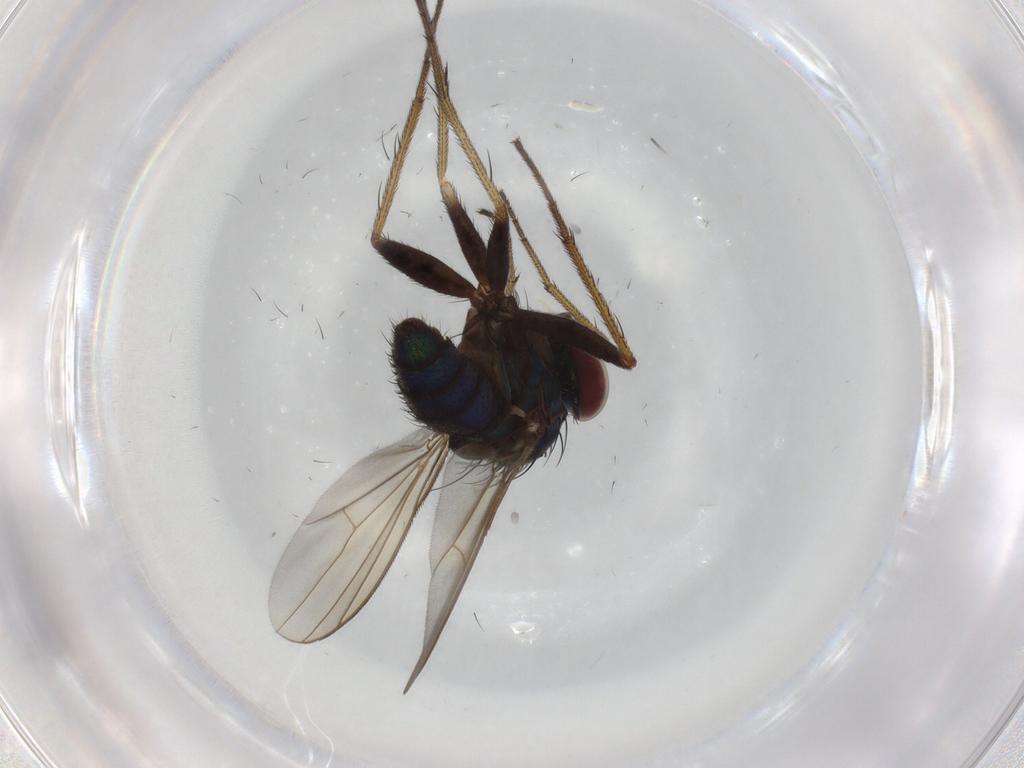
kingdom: Animalia
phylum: Arthropoda
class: Insecta
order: Diptera
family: Dolichopodidae
